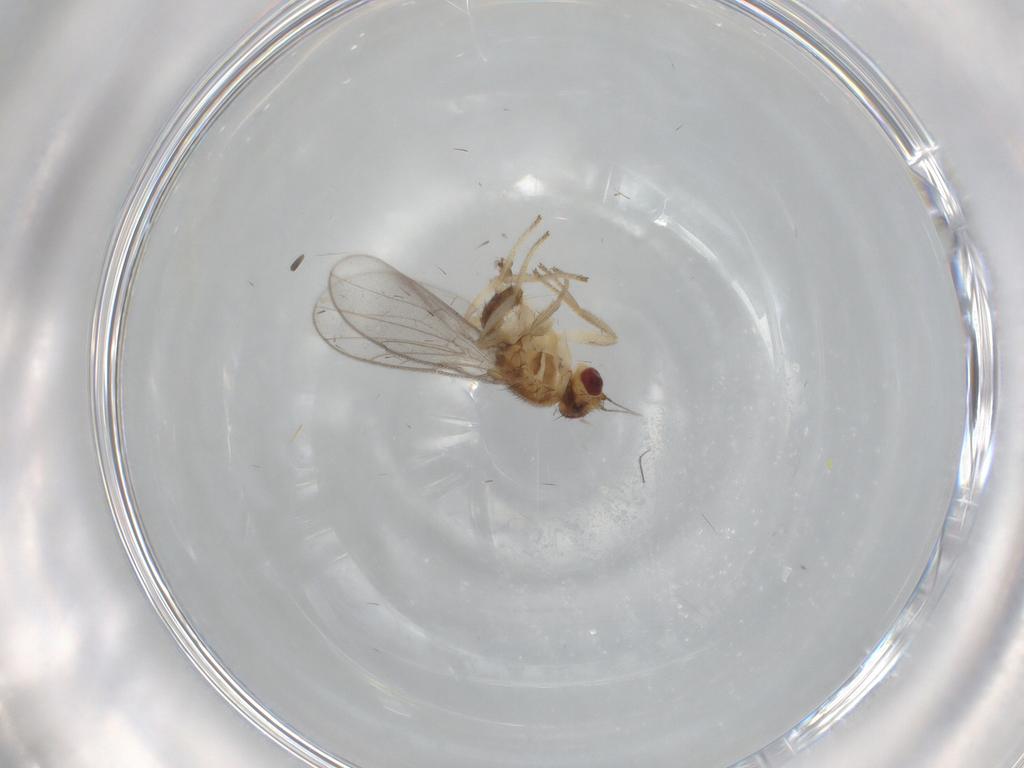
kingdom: Animalia
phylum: Arthropoda
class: Insecta
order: Diptera
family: Chloropidae
